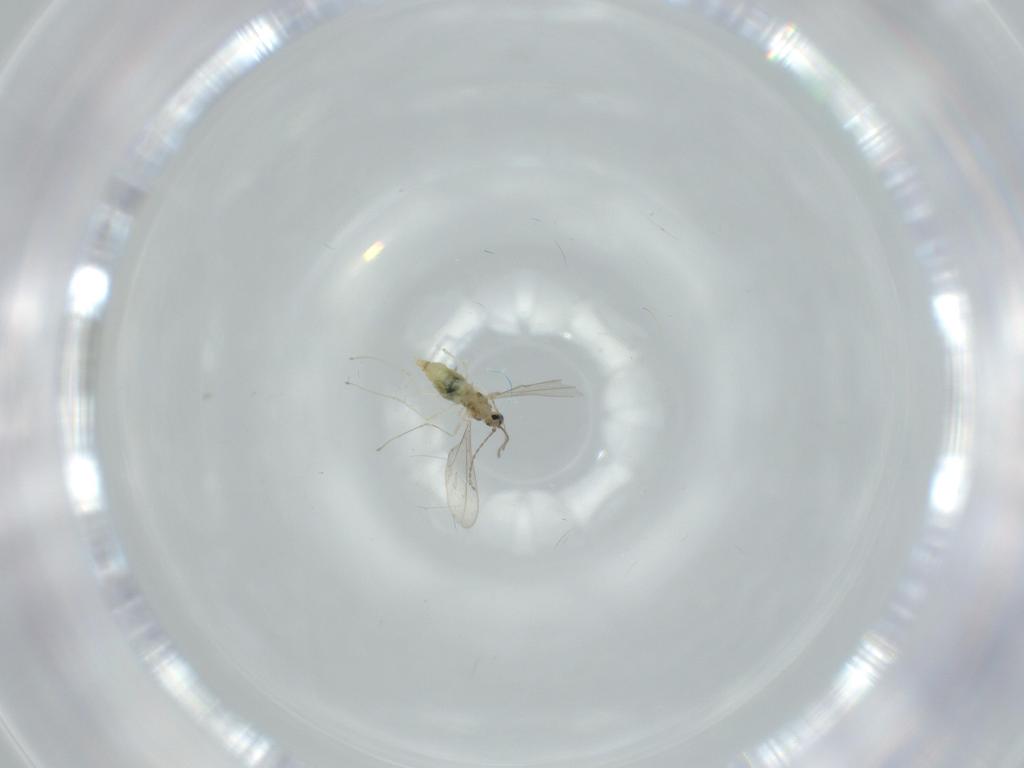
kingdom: Animalia
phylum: Arthropoda
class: Insecta
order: Diptera
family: Cecidomyiidae
